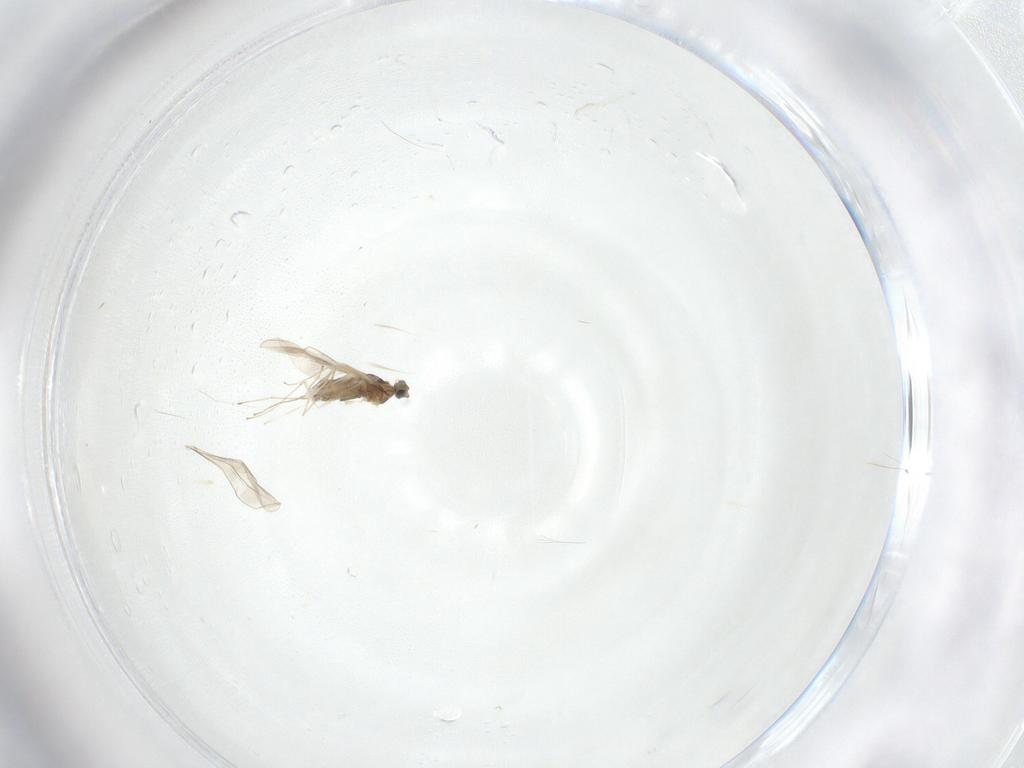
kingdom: Animalia
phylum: Arthropoda
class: Insecta
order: Diptera
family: Cecidomyiidae
